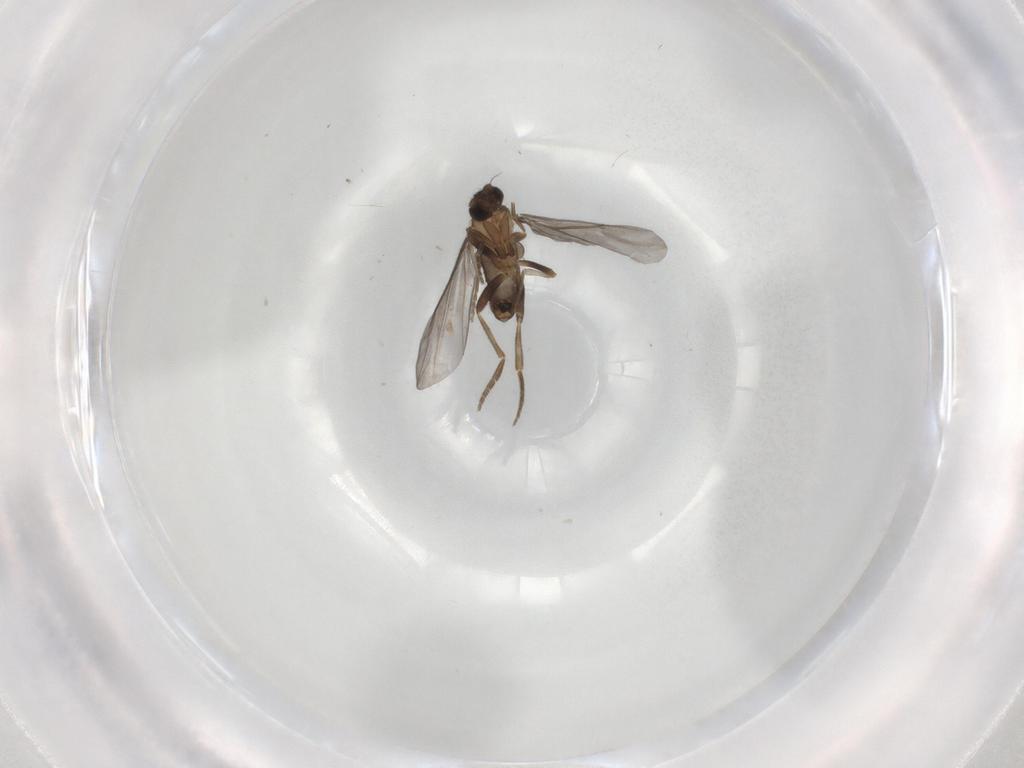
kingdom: Animalia
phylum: Arthropoda
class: Insecta
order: Diptera
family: Phoridae
